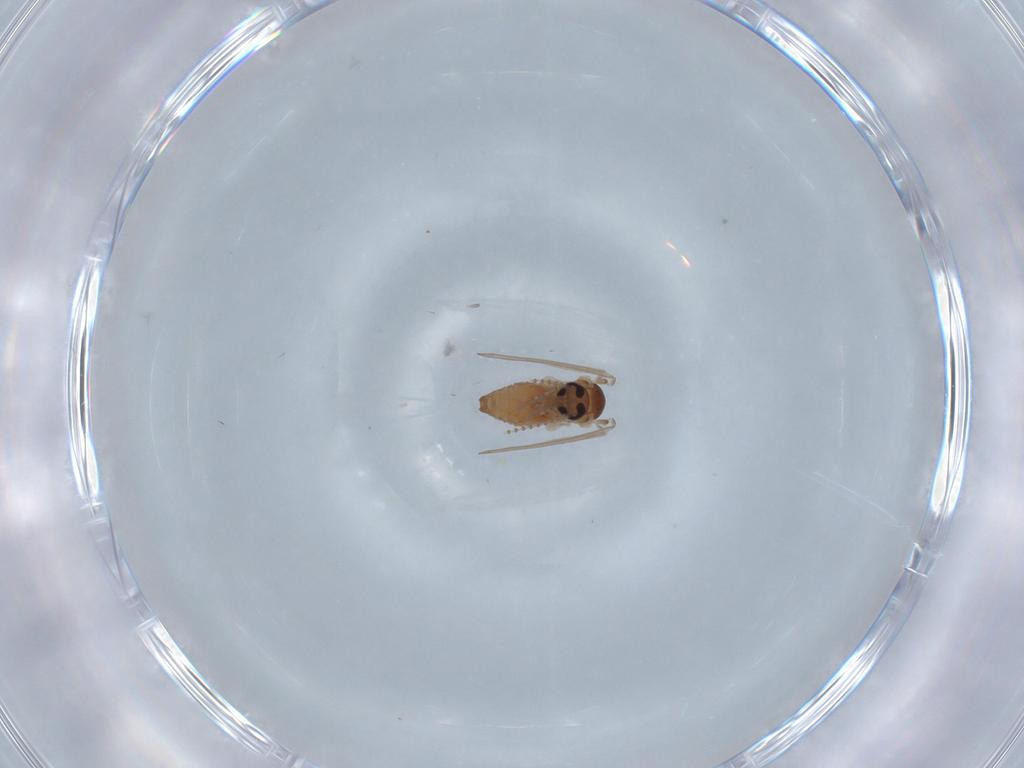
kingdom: Animalia
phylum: Arthropoda
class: Insecta
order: Diptera
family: Psychodidae
